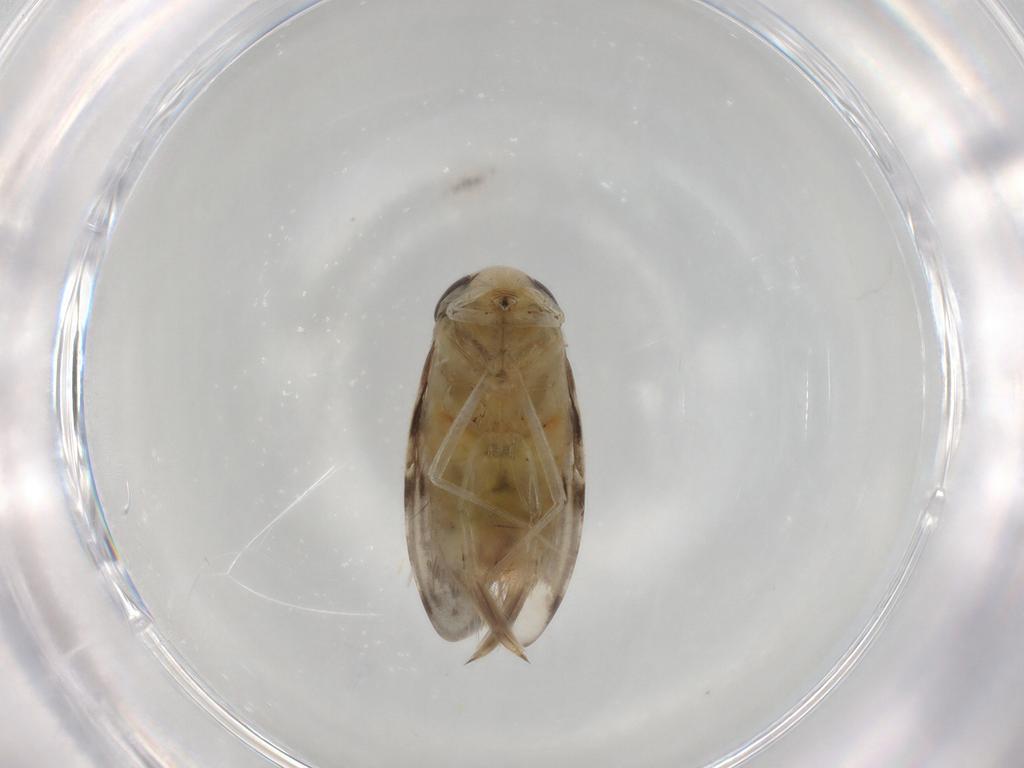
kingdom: Animalia
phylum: Arthropoda
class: Insecta
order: Hemiptera
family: Corixidae
